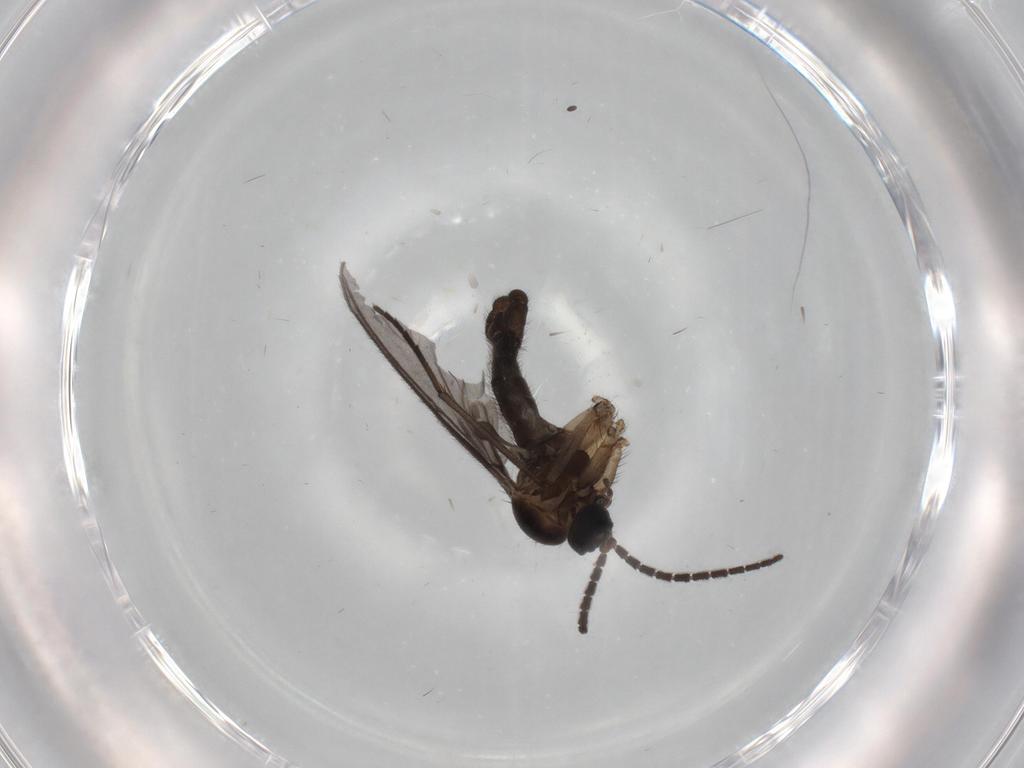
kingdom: Animalia
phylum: Arthropoda
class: Insecta
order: Diptera
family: Sciaridae
